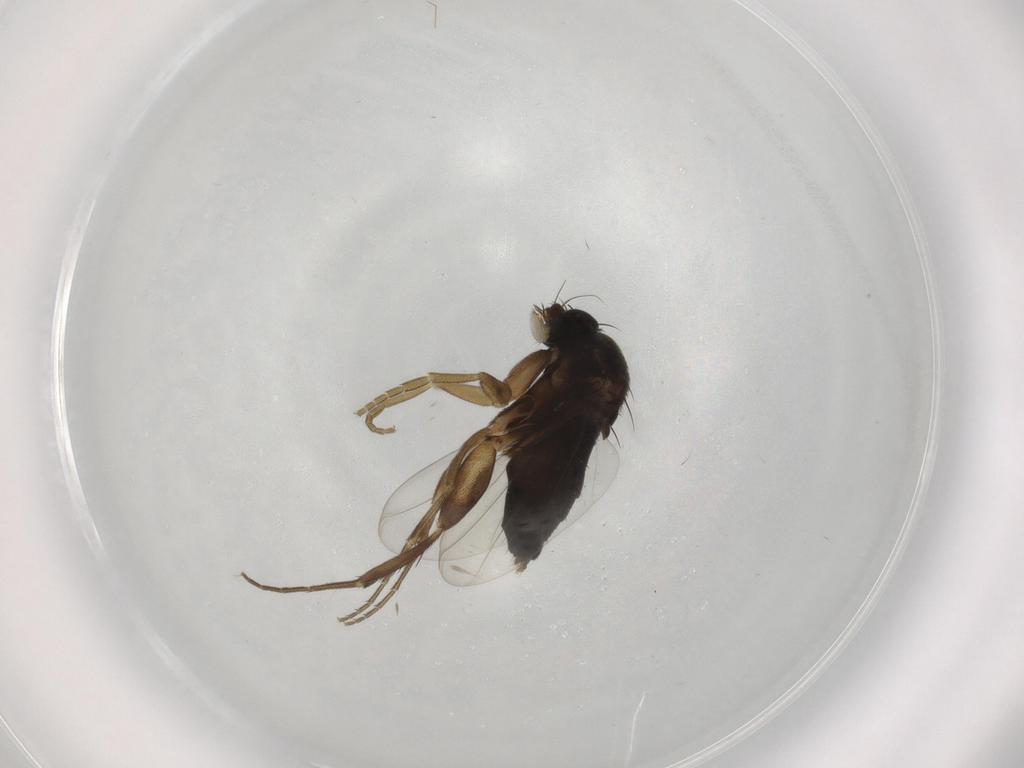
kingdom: Animalia
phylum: Arthropoda
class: Insecta
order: Diptera
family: Phoridae
